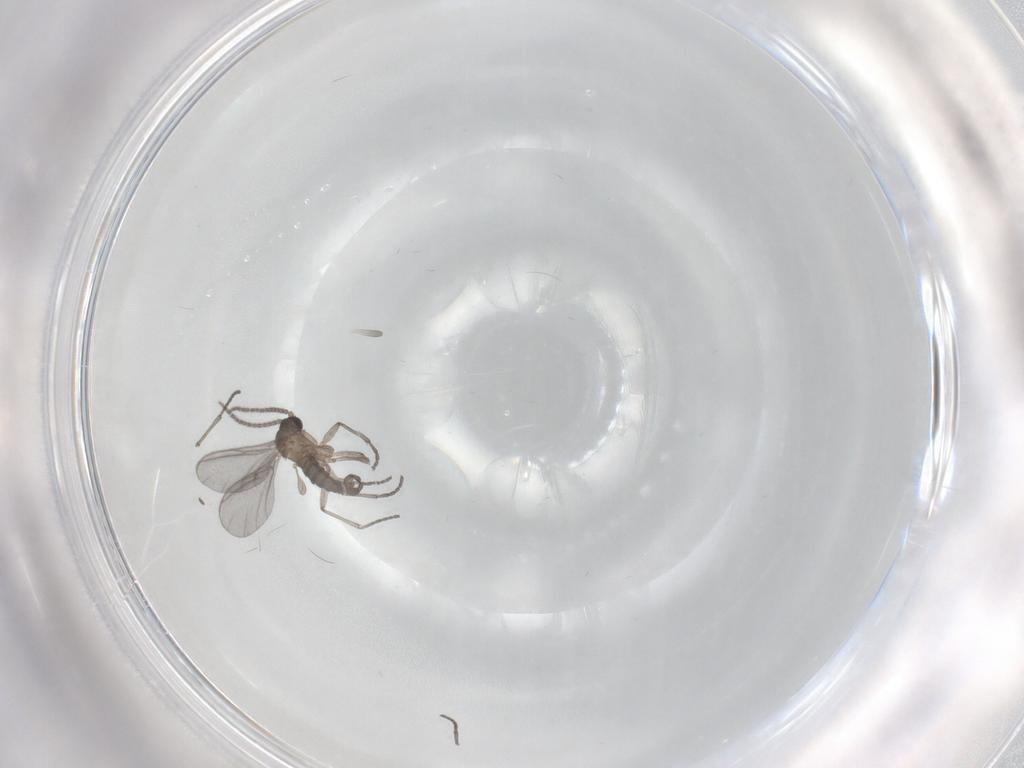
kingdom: Animalia
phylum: Arthropoda
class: Insecta
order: Diptera
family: Sciaridae
